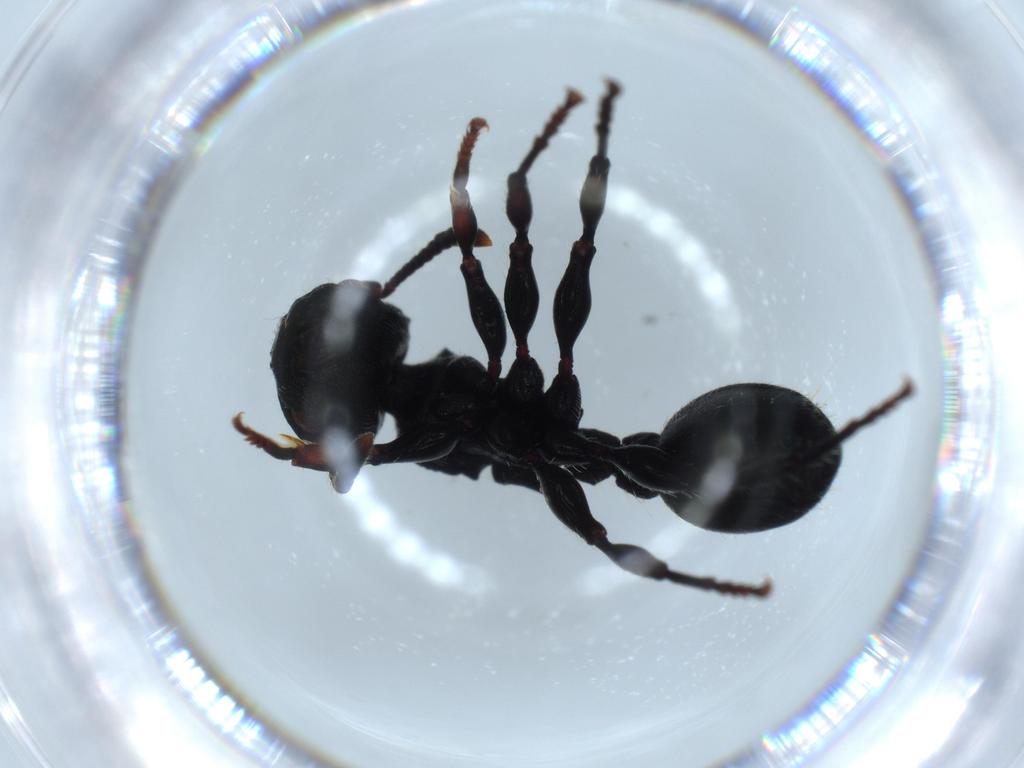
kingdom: Animalia
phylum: Arthropoda
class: Insecta
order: Hymenoptera
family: Formicidae
